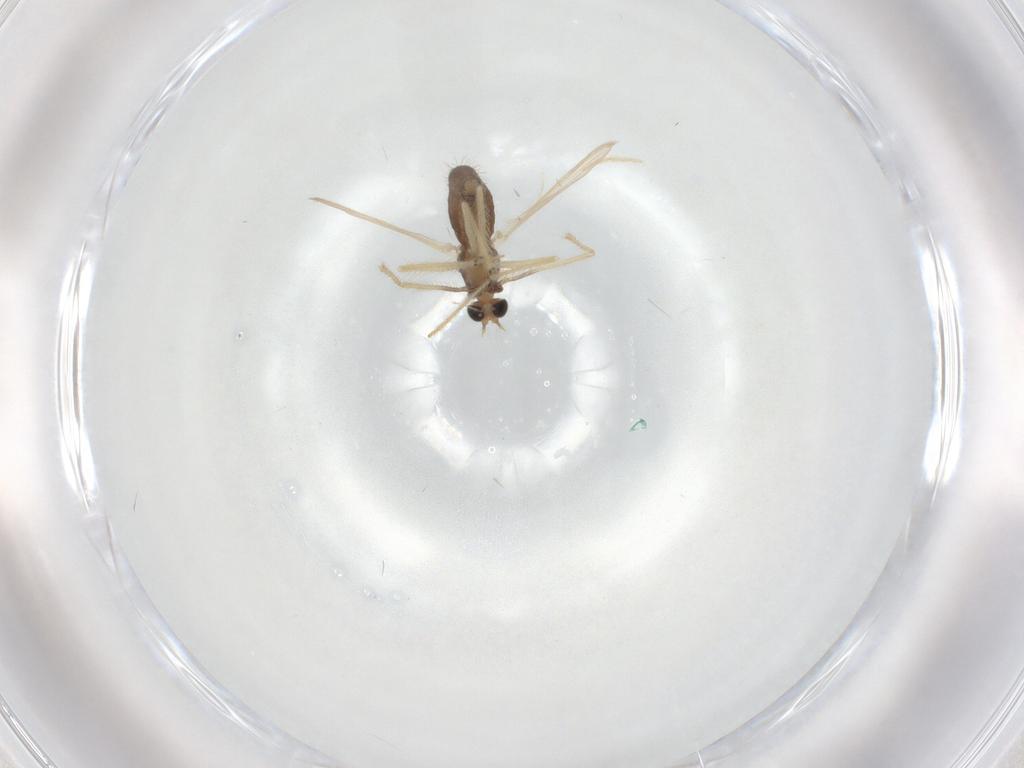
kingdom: Animalia
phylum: Arthropoda
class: Insecta
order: Diptera
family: Chironomidae
